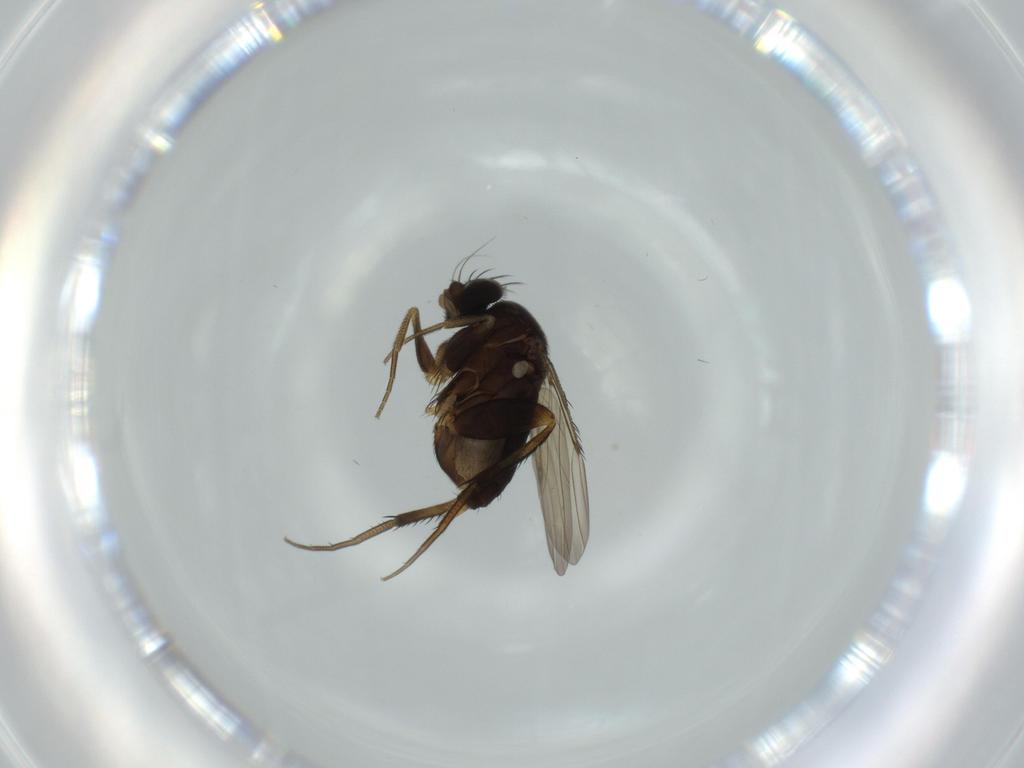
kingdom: Animalia
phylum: Arthropoda
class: Insecta
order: Diptera
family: Phoridae
